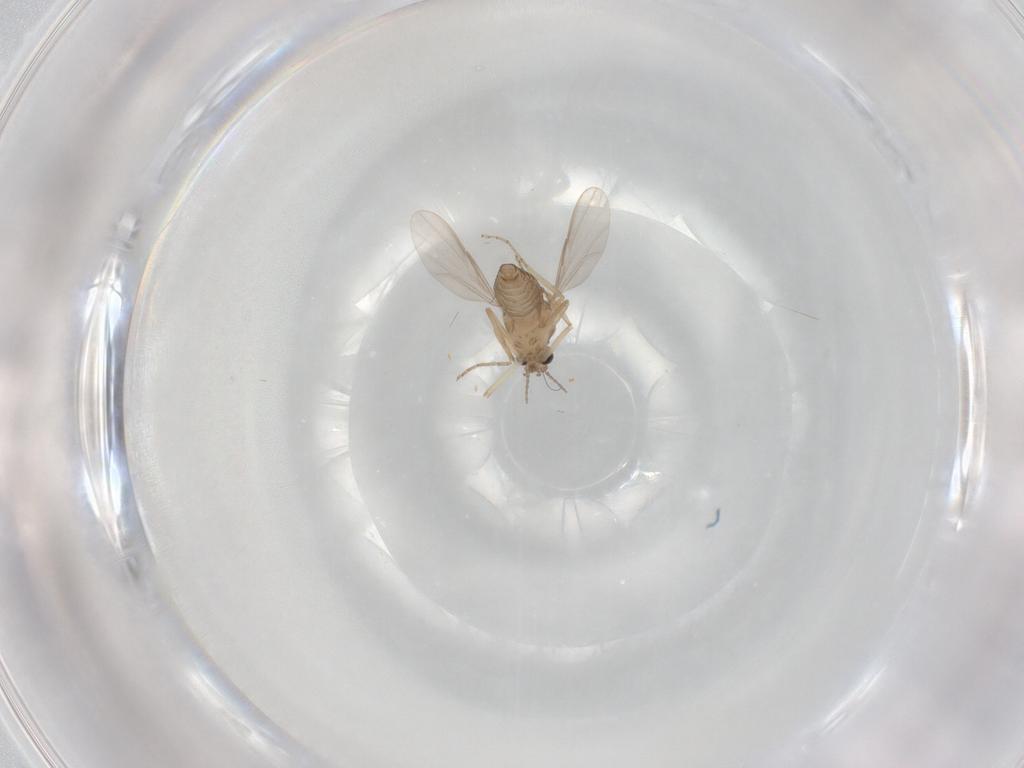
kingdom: Animalia
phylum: Arthropoda
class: Insecta
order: Diptera
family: Ceratopogonidae
